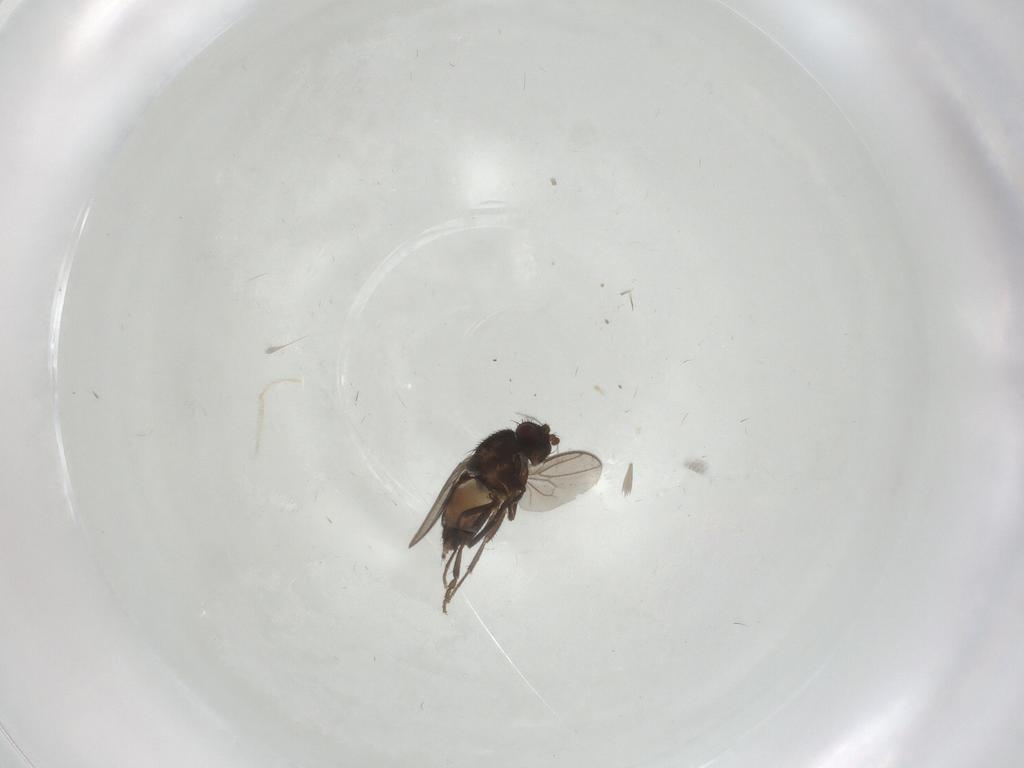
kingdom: Animalia
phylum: Arthropoda
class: Insecta
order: Diptera
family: Sphaeroceridae
